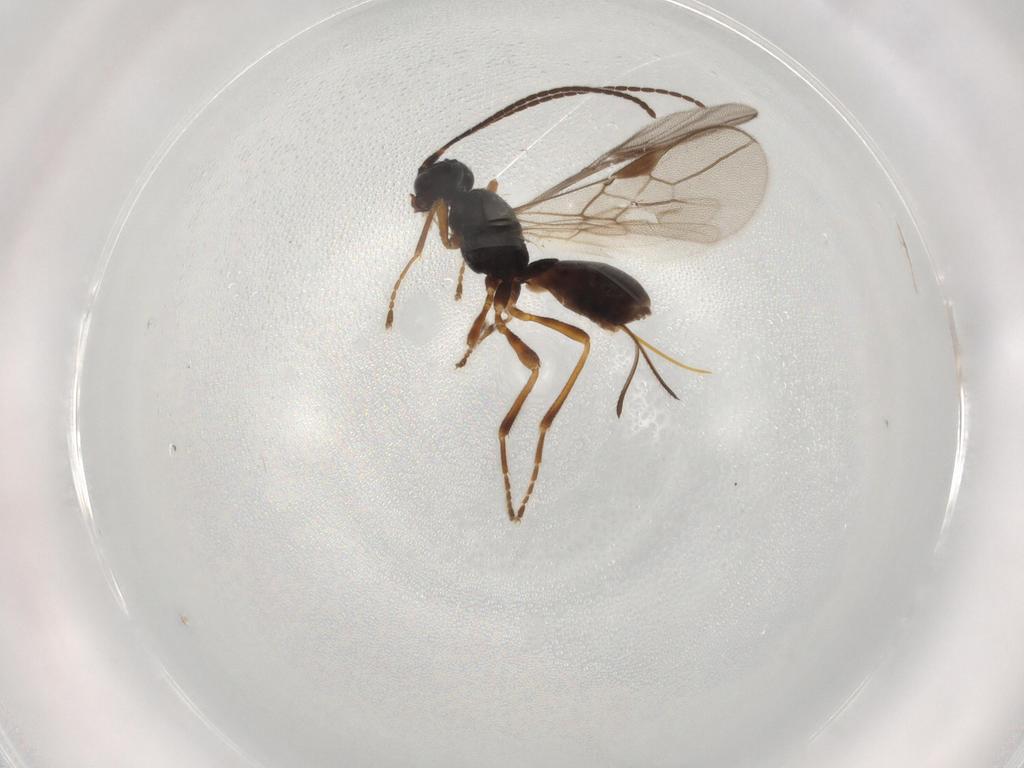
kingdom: Animalia
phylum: Arthropoda
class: Insecta
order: Hymenoptera
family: Braconidae
